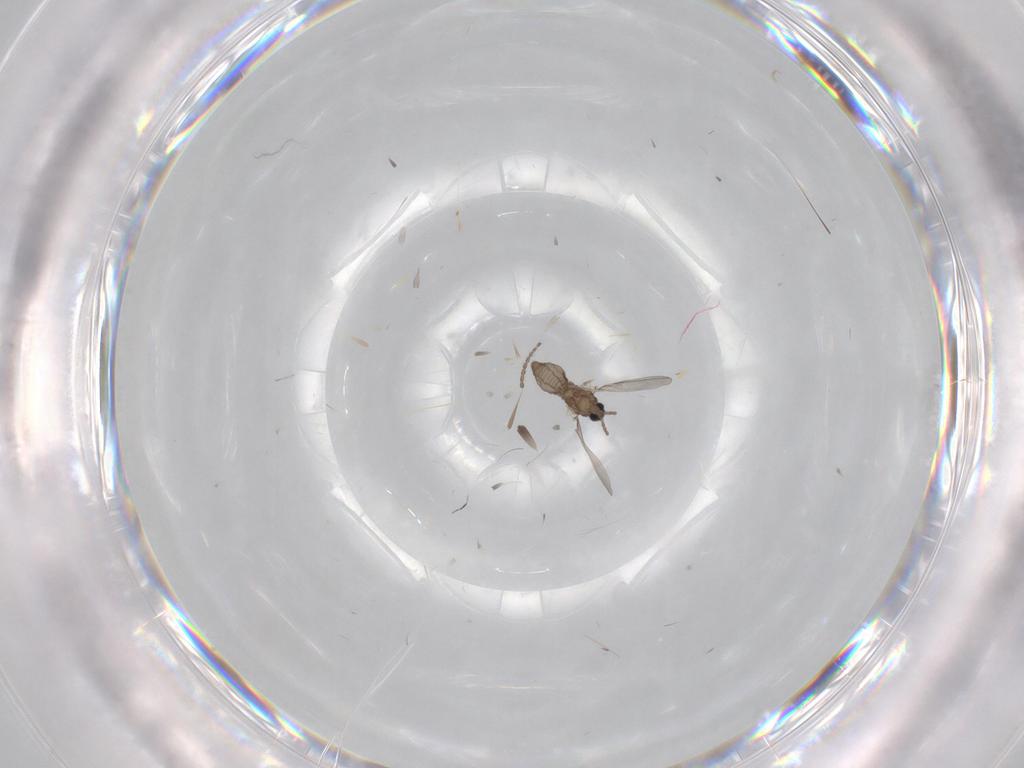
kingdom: Animalia
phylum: Arthropoda
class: Insecta
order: Diptera
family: Cecidomyiidae
